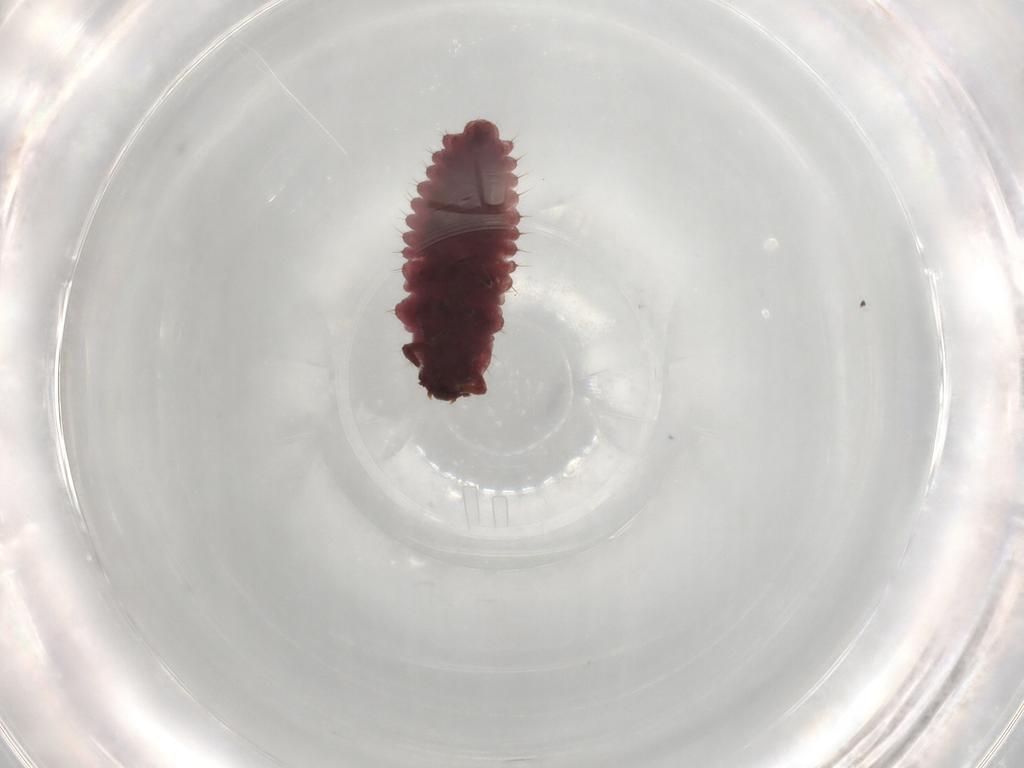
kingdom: Animalia
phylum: Arthropoda
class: Insecta
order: Coleoptera
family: Coccinellidae
